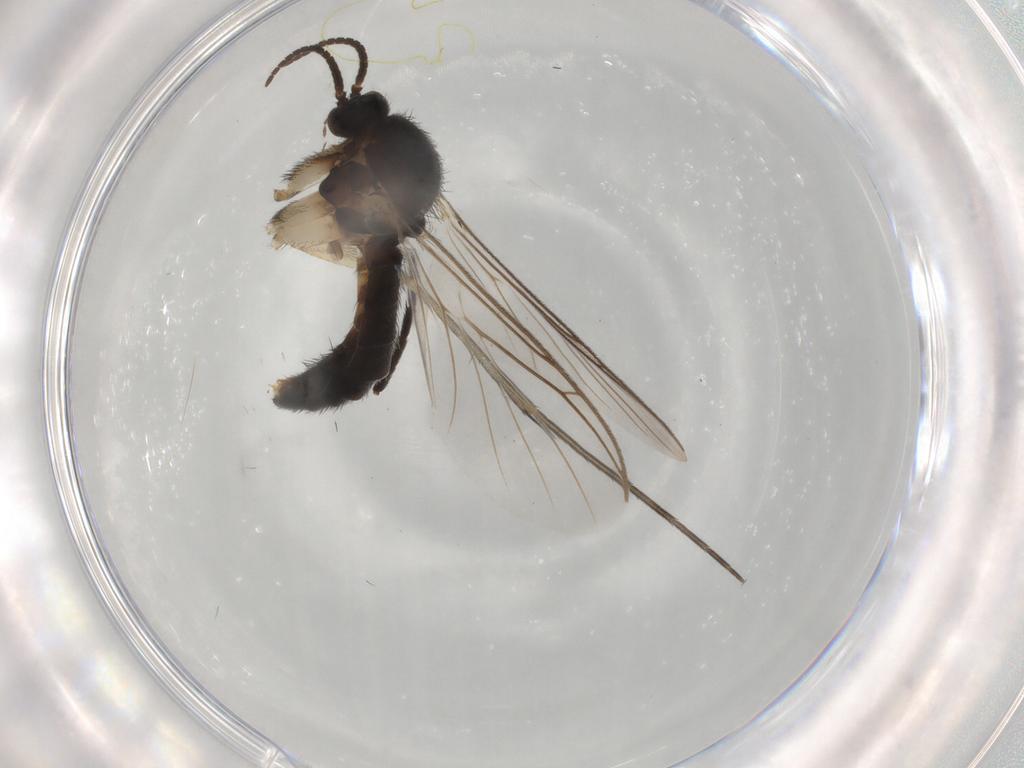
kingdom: Animalia
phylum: Arthropoda
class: Insecta
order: Diptera
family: Keroplatidae
